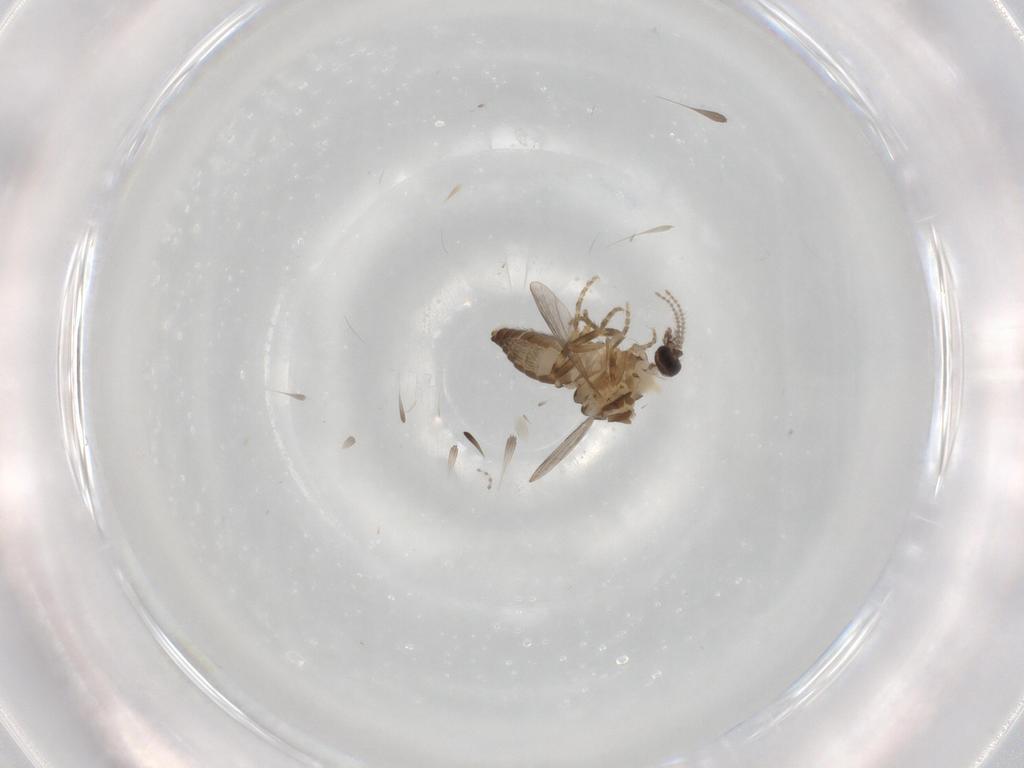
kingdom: Animalia
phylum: Arthropoda
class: Insecta
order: Diptera
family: Ceratopogonidae
